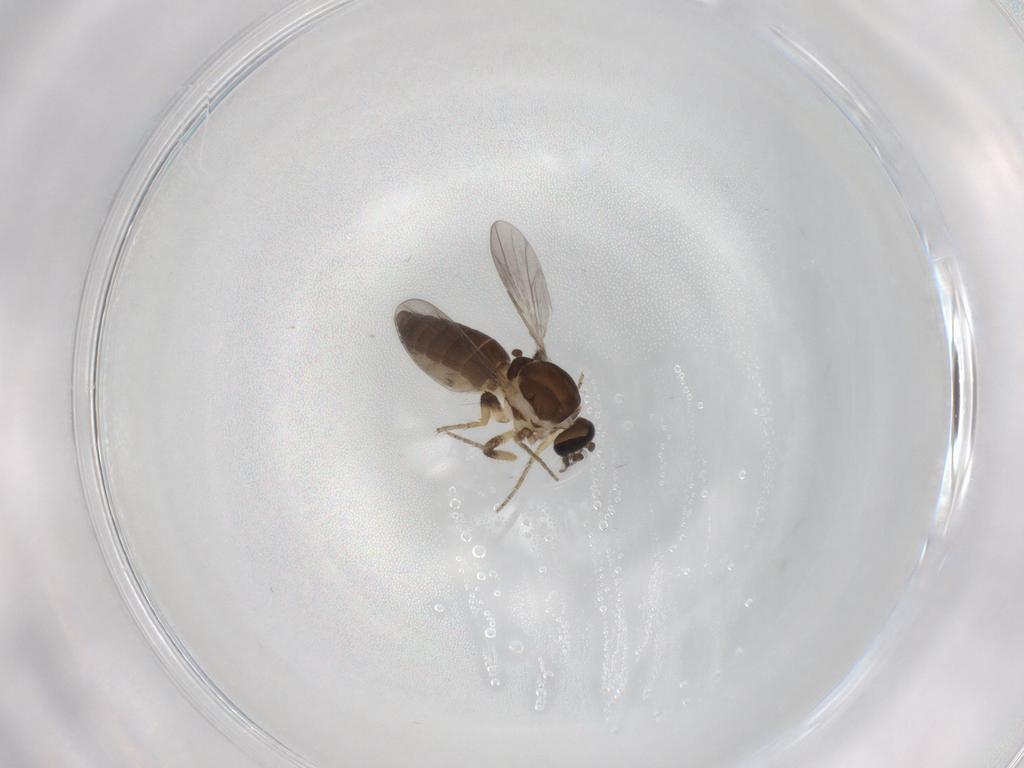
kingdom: Animalia
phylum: Arthropoda
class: Insecta
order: Diptera
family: Ceratopogonidae
